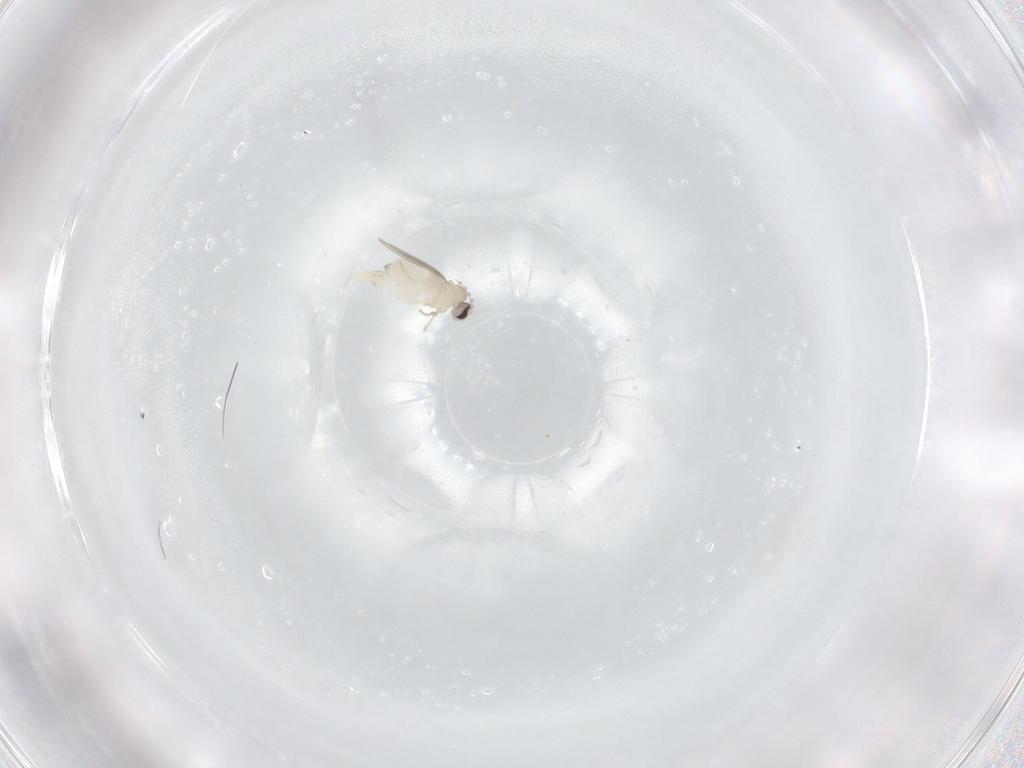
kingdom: Animalia
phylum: Arthropoda
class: Insecta
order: Diptera
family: Cecidomyiidae
